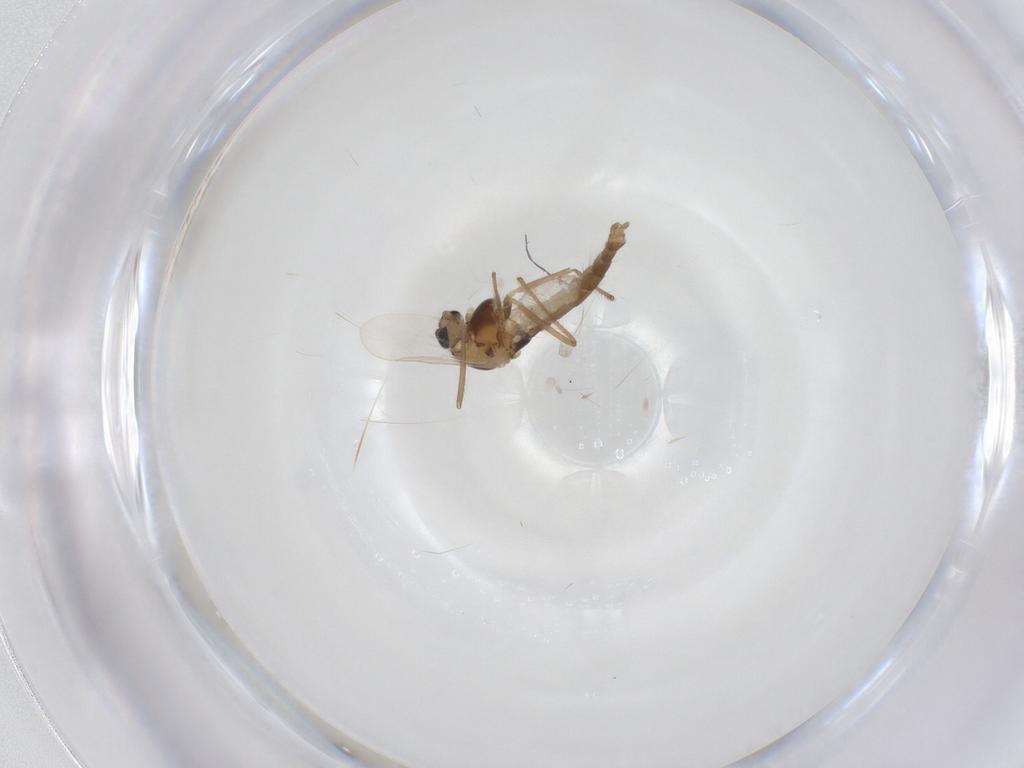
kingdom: Animalia
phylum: Arthropoda
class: Insecta
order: Diptera
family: Chironomidae
